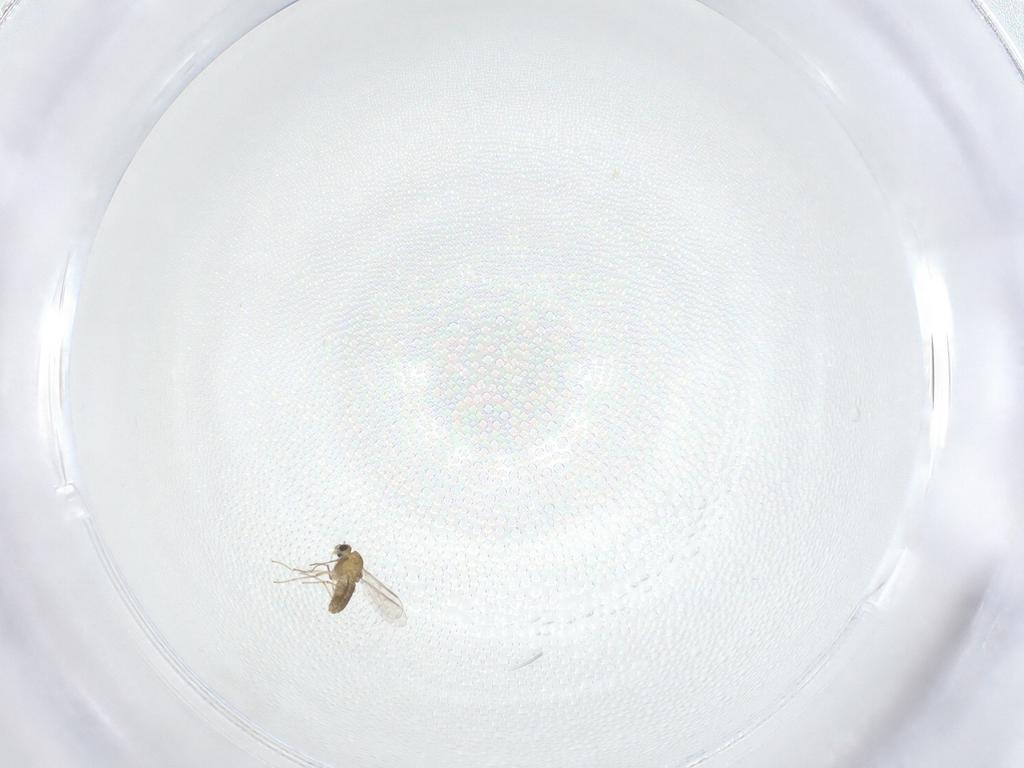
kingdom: Animalia
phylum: Arthropoda
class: Insecta
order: Diptera
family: Chironomidae
